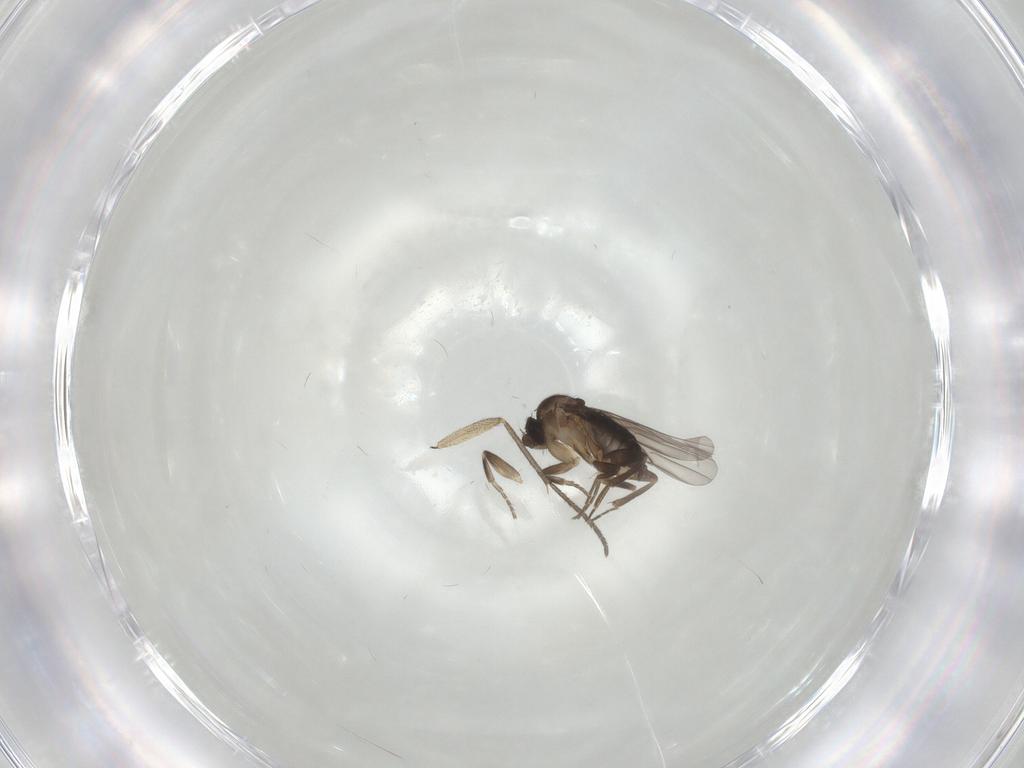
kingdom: Animalia
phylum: Arthropoda
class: Insecta
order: Diptera
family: Sciaridae
